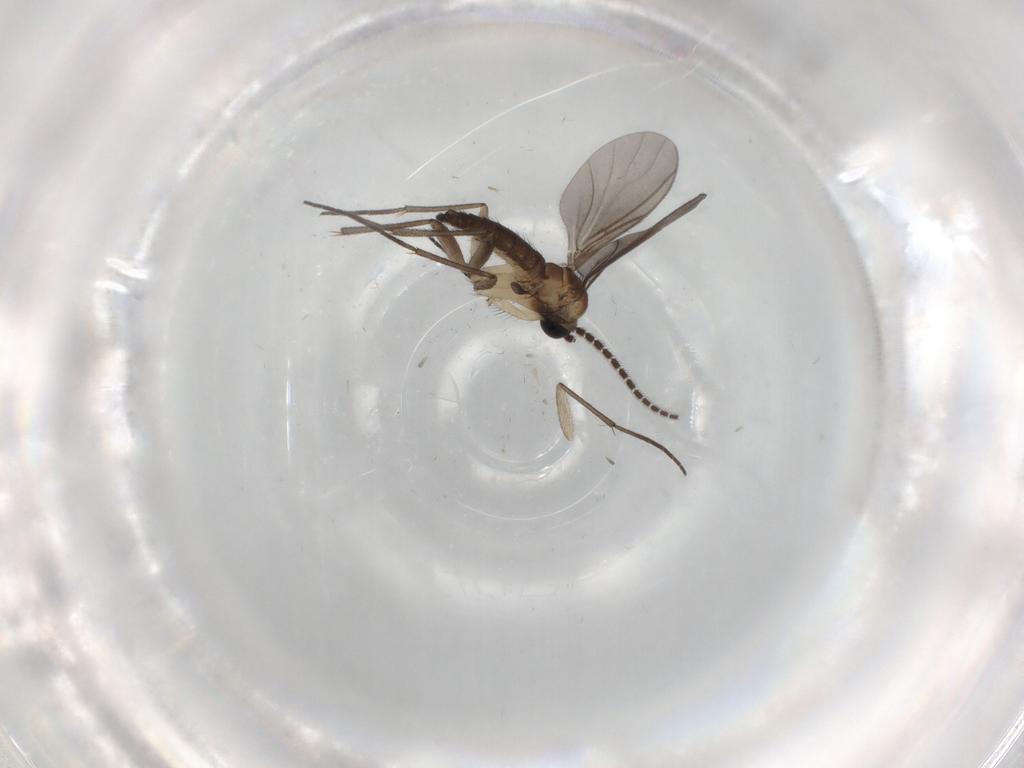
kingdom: Animalia
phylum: Arthropoda
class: Insecta
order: Diptera
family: Sciaridae
